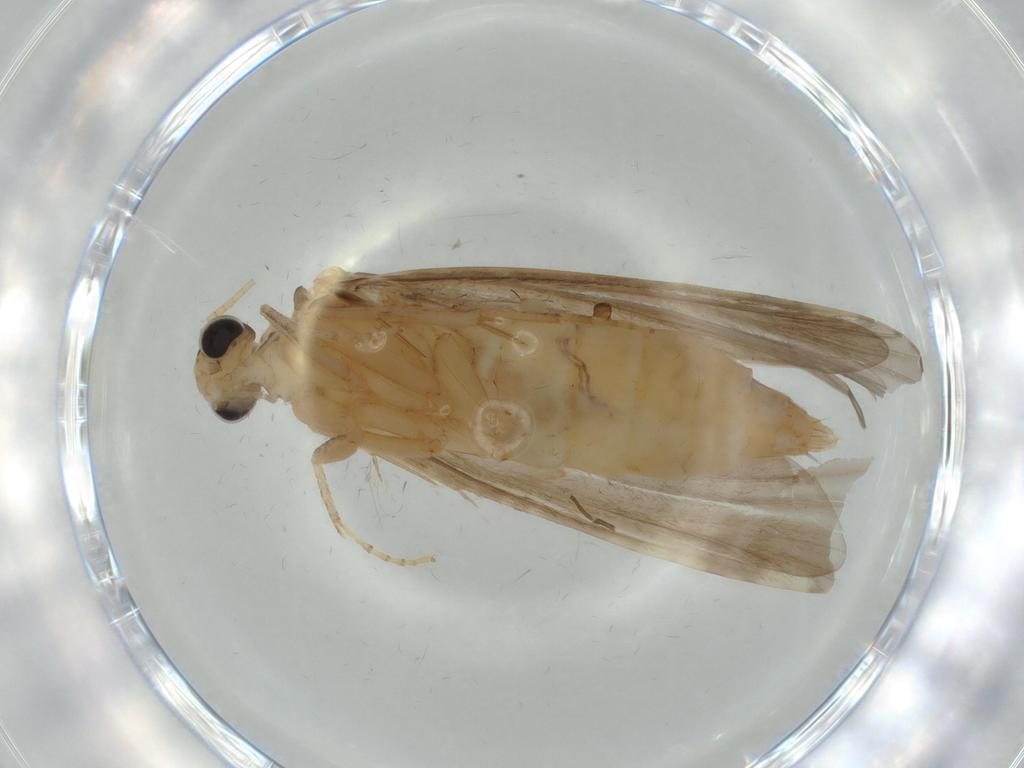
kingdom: Animalia
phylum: Arthropoda
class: Insecta
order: Trichoptera
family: Ecnomidae
